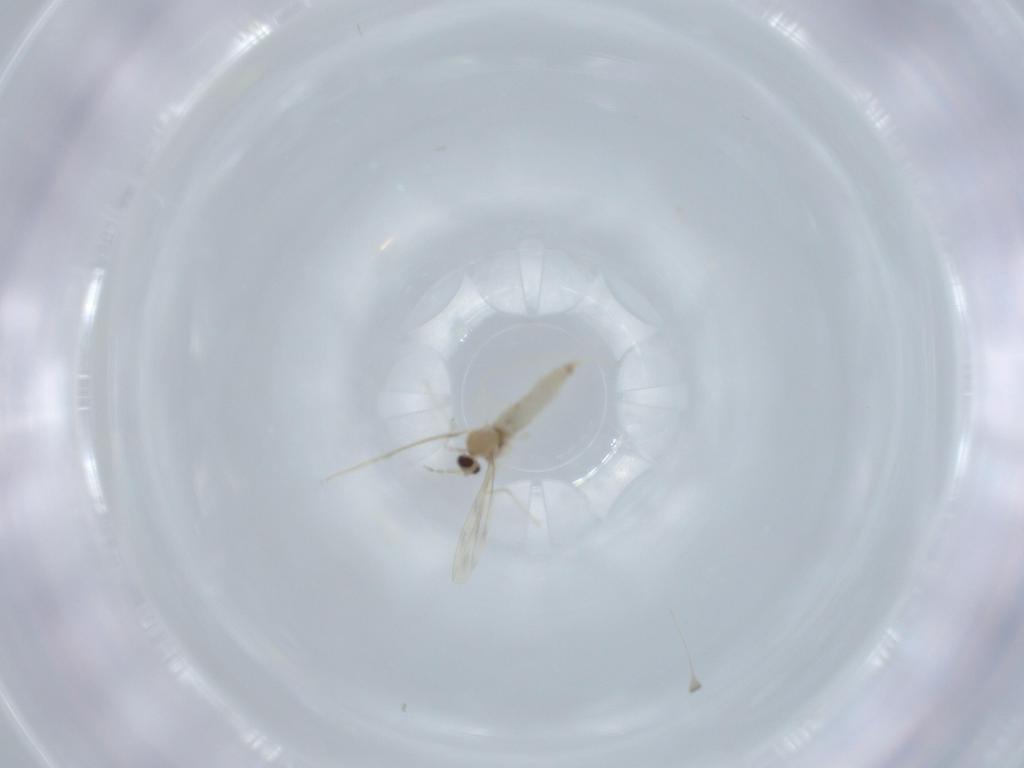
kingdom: Animalia
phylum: Arthropoda
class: Insecta
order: Diptera
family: Cecidomyiidae
